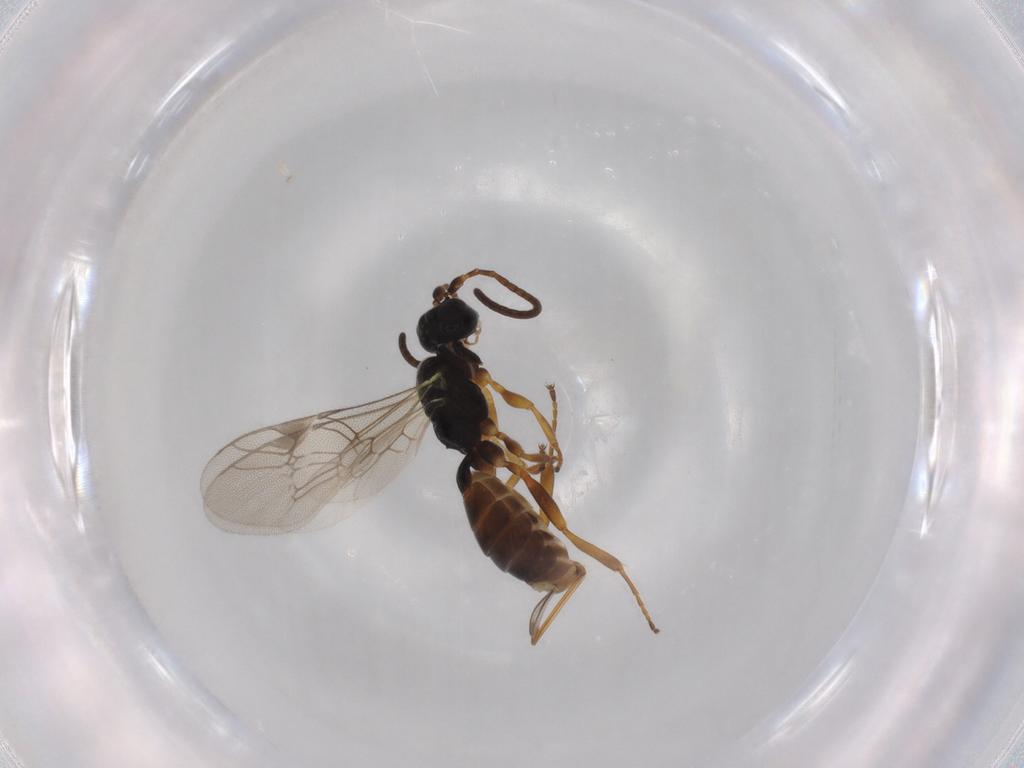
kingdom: Animalia
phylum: Arthropoda
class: Insecta
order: Hymenoptera
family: Ichneumonidae
